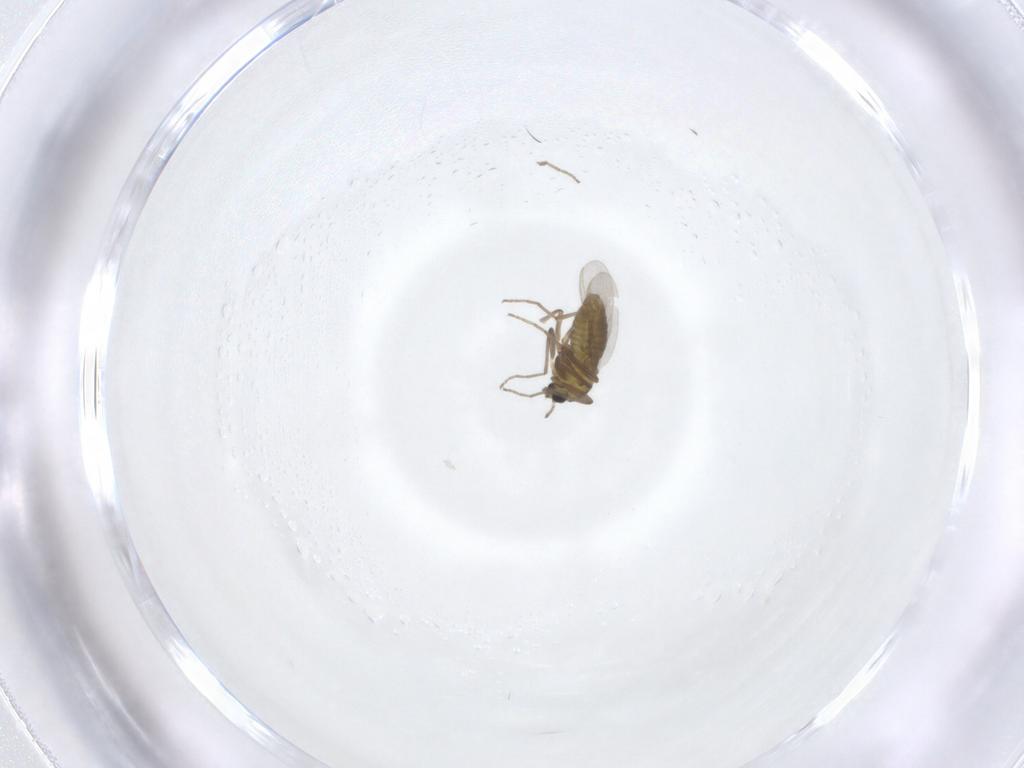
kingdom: Animalia
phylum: Arthropoda
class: Insecta
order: Diptera
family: Chironomidae
